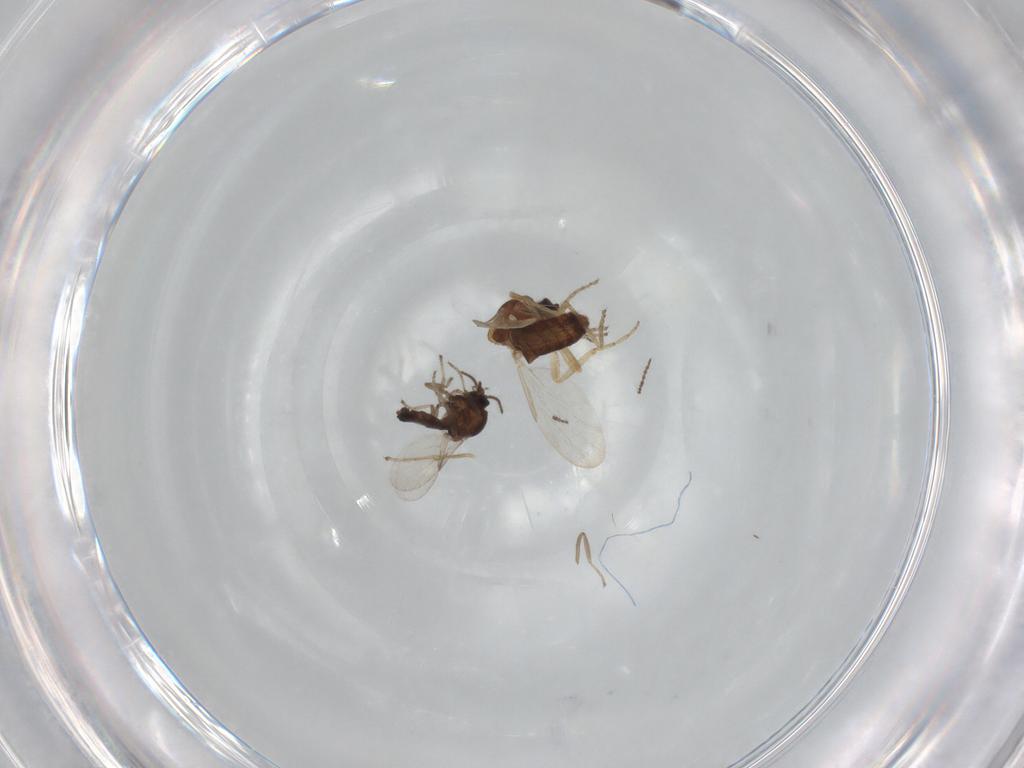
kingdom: Animalia
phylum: Arthropoda
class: Insecta
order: Diptera
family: Ceratopogonidae
